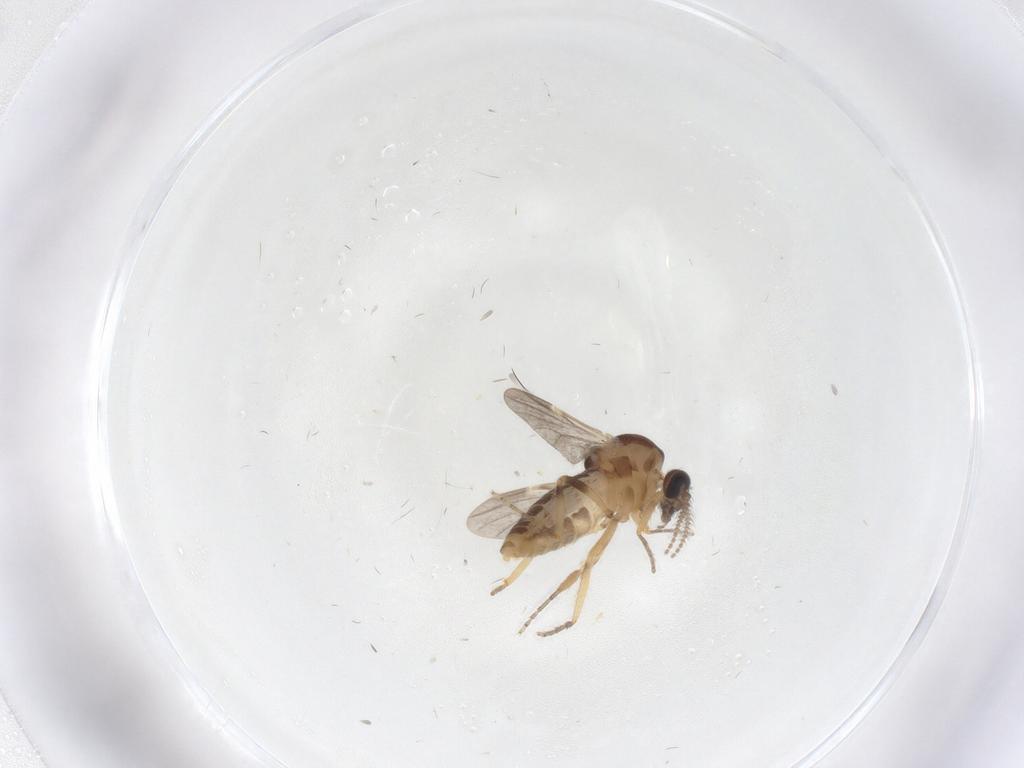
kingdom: Animalia
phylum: Arthropoda
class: Insecta
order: Diptera
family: Ceratopogonidae
